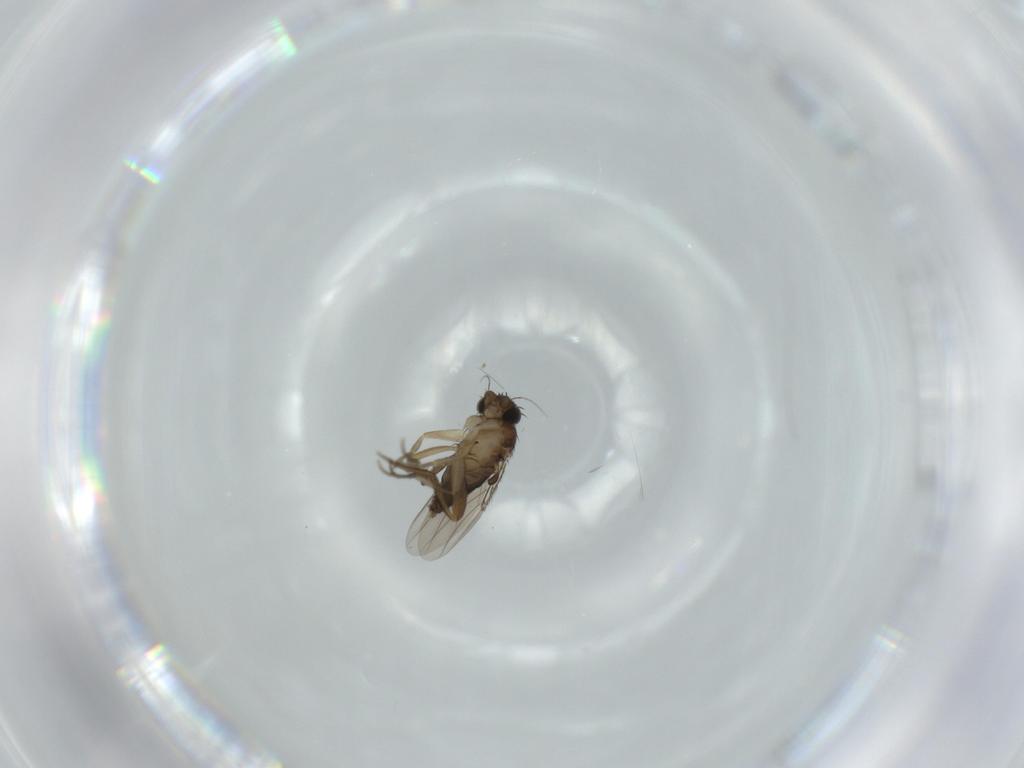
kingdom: Animalia
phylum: Arthropoda
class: Insecta
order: Diptera
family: Phoridae
